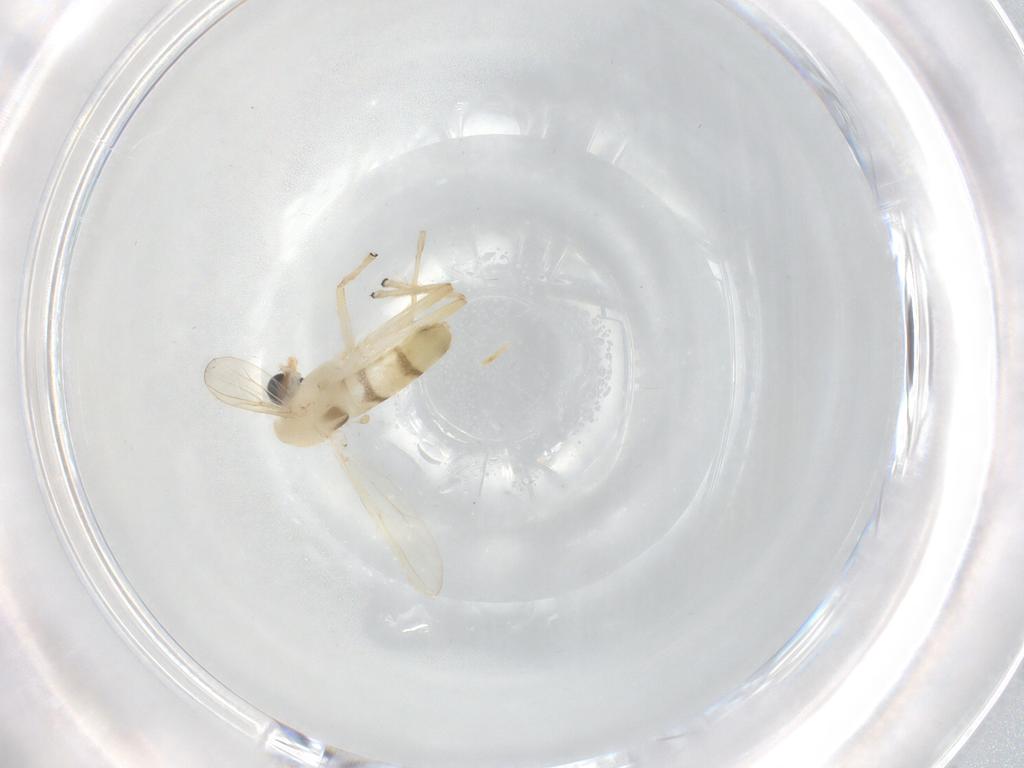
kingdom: Animalia
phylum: Arthropoda
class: Insecta
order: Diptera
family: Chironomidae
